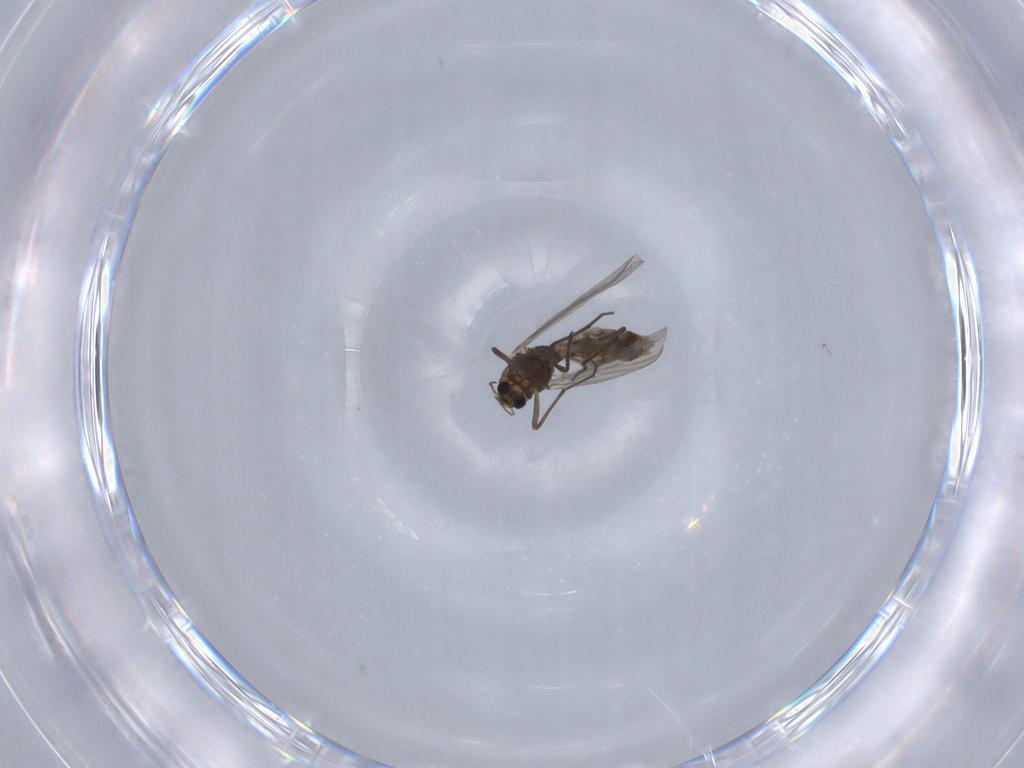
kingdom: Animalia
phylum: Arthropoda
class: Insecta
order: Diptera
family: Chironomidae
